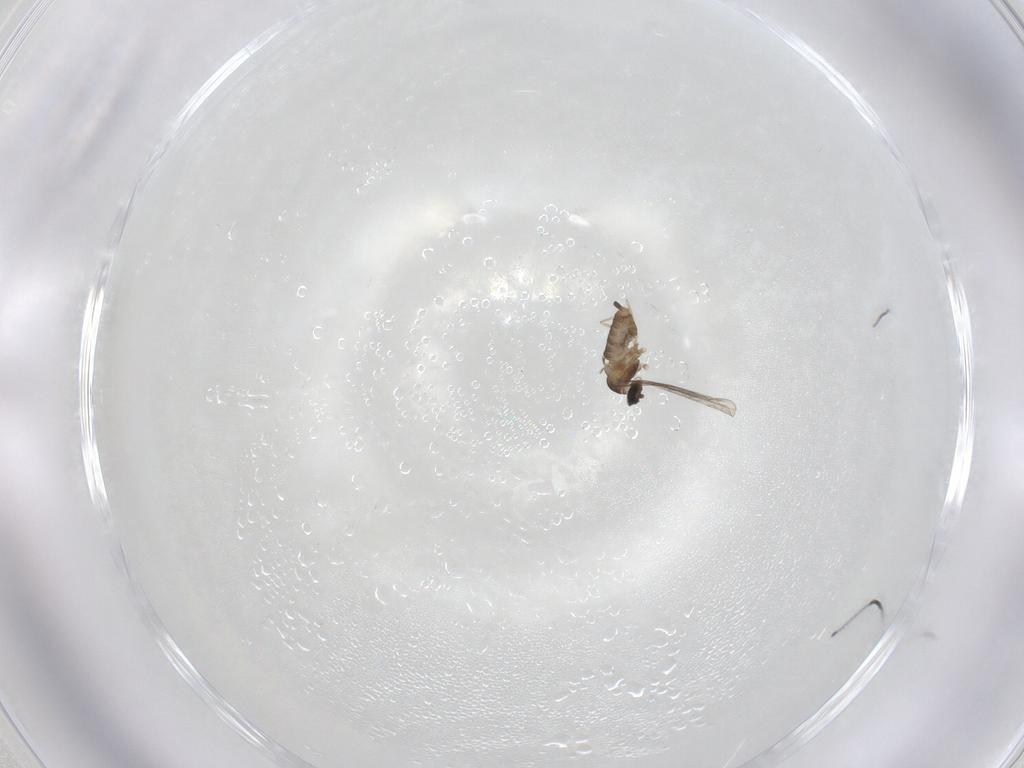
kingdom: Animalia
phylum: Arthropoda
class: Insecta
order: Diptera
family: Cecidomyiidae
